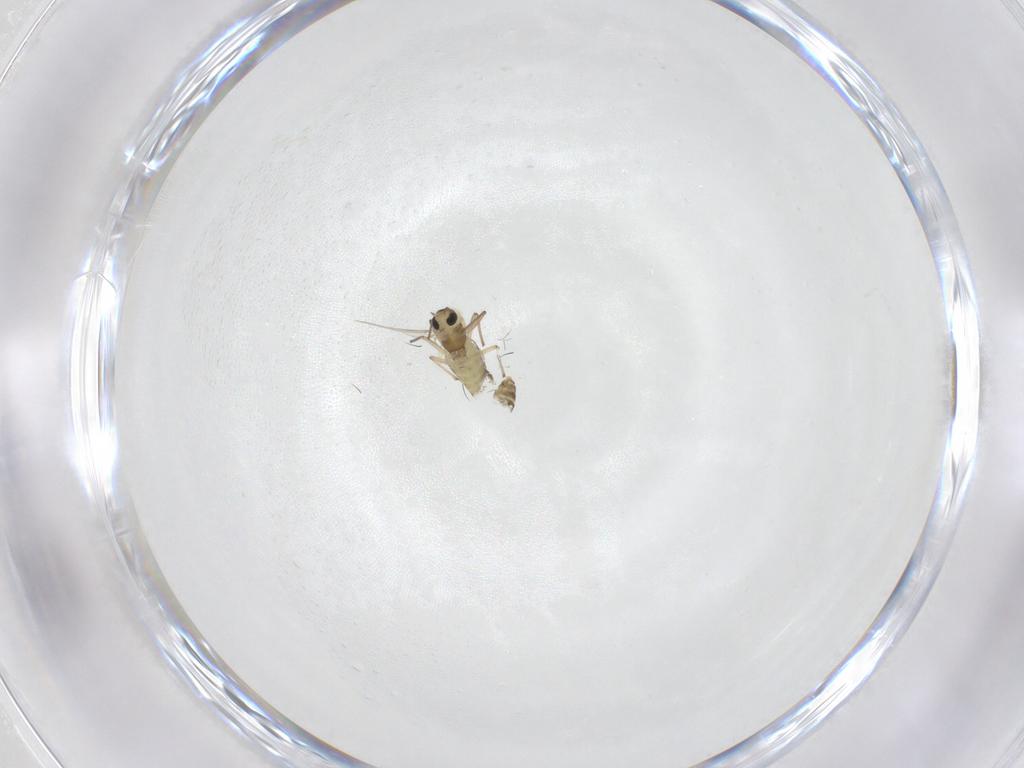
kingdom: Animalia
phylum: Arthropoda
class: Insecta
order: Diptera
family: Chironomidae
